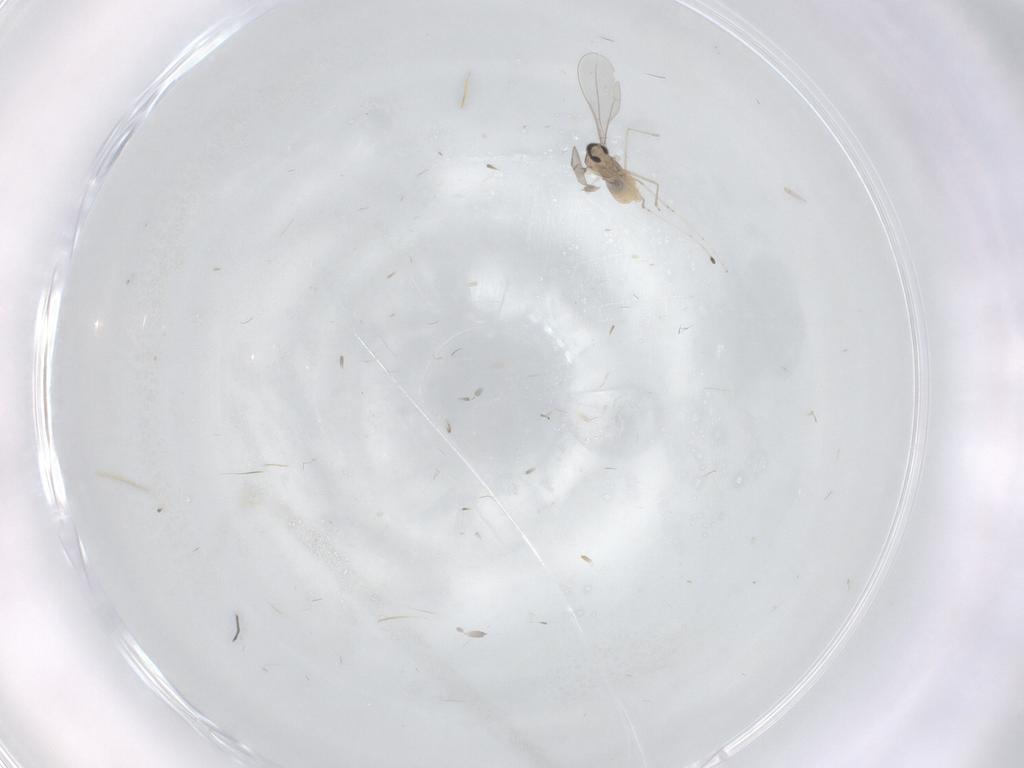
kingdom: Animalia
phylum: Arthropoda
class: Insecta
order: Diptera
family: Cecidomyiidae
